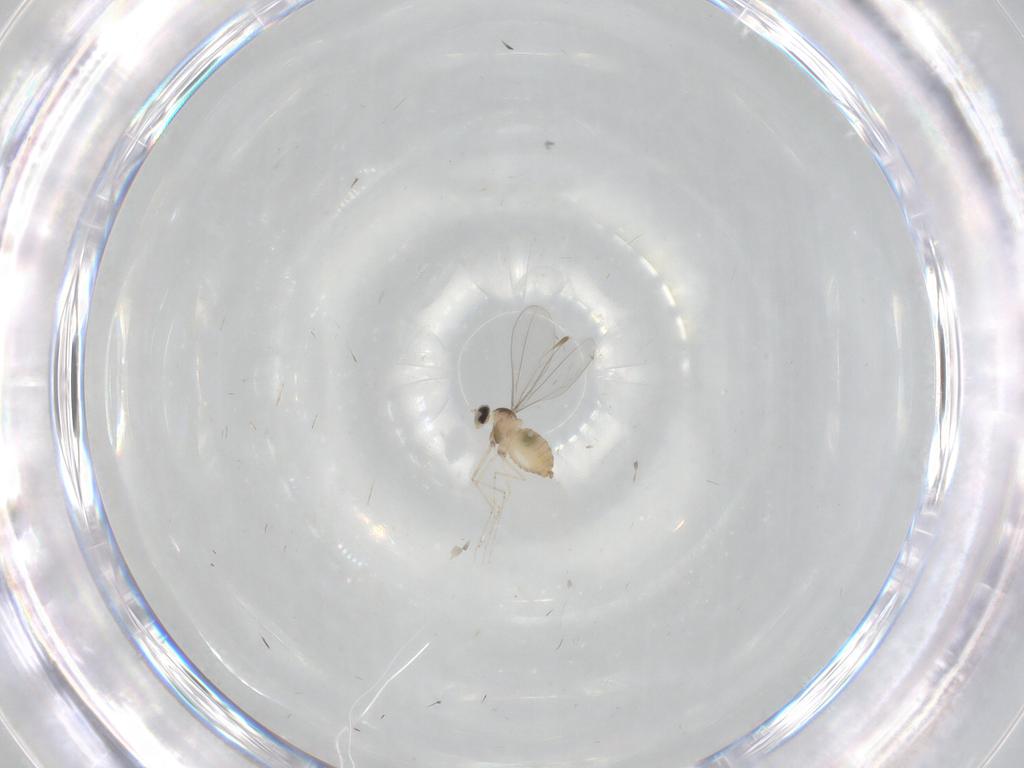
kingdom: Animalia
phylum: Arthropoda
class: Insecta
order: Diptera
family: Cecidomyiidae
